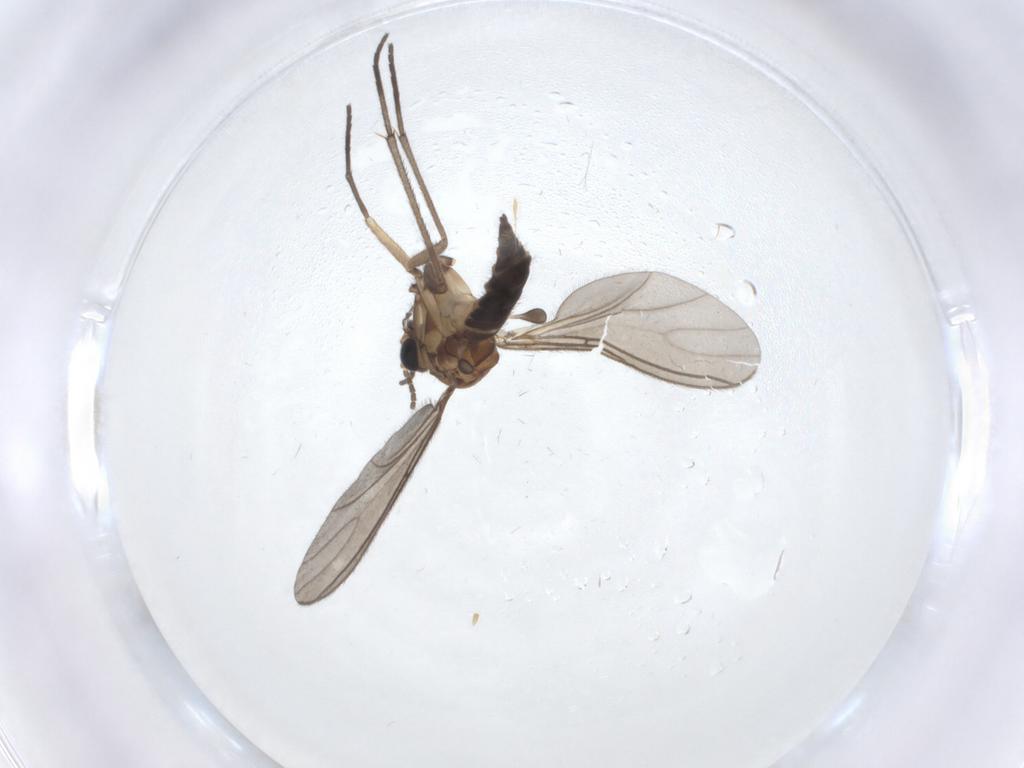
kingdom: Animalia
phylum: Arthropoda
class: Insecta
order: Diptera
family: Sciaridae
